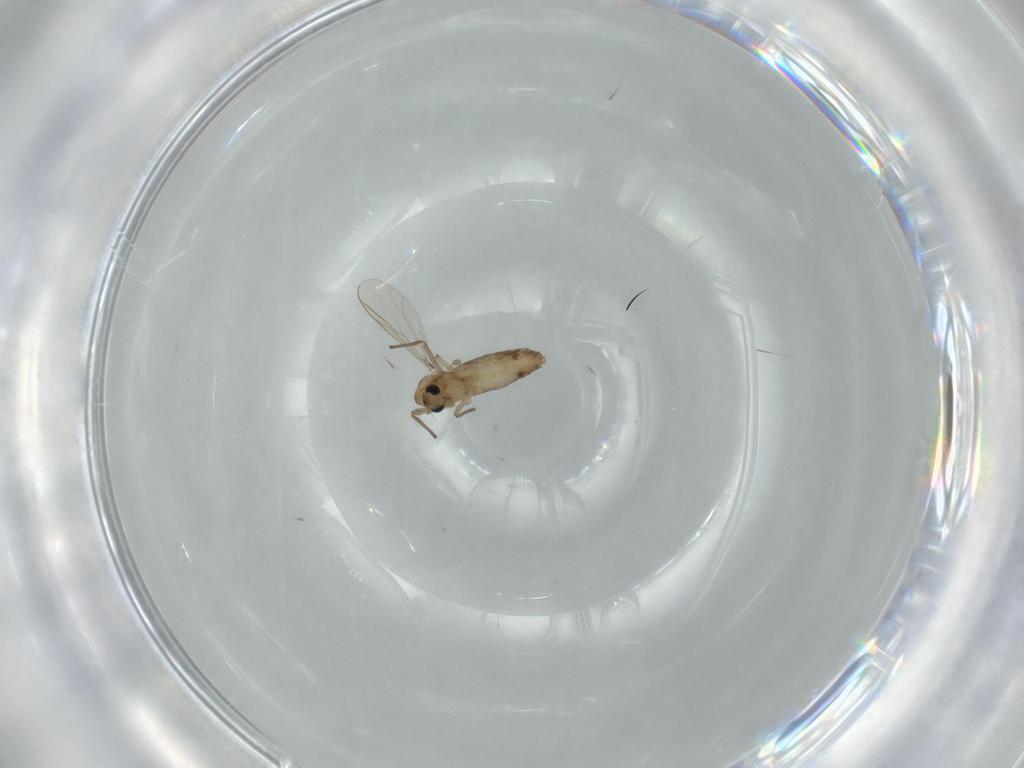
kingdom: Animalia
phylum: Arthropoda
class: Insecta
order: Diptera
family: Chironomidae
